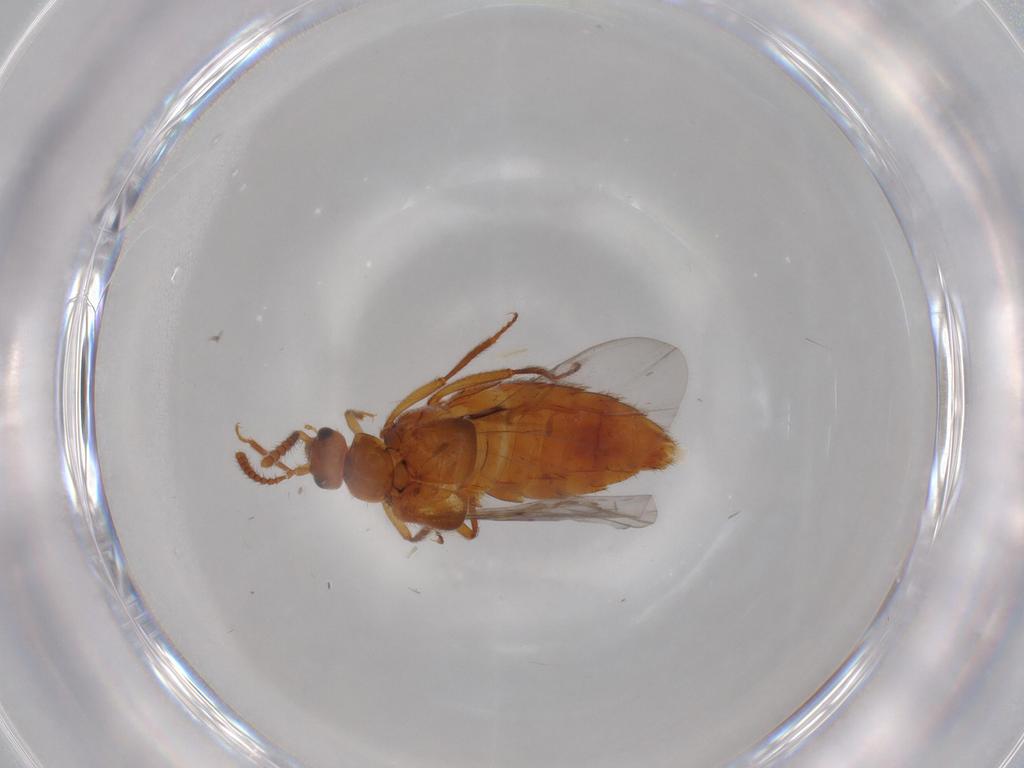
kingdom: Animalia
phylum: Arthropoda
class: Insecta
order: Coleoptera
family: Staphylinidae
